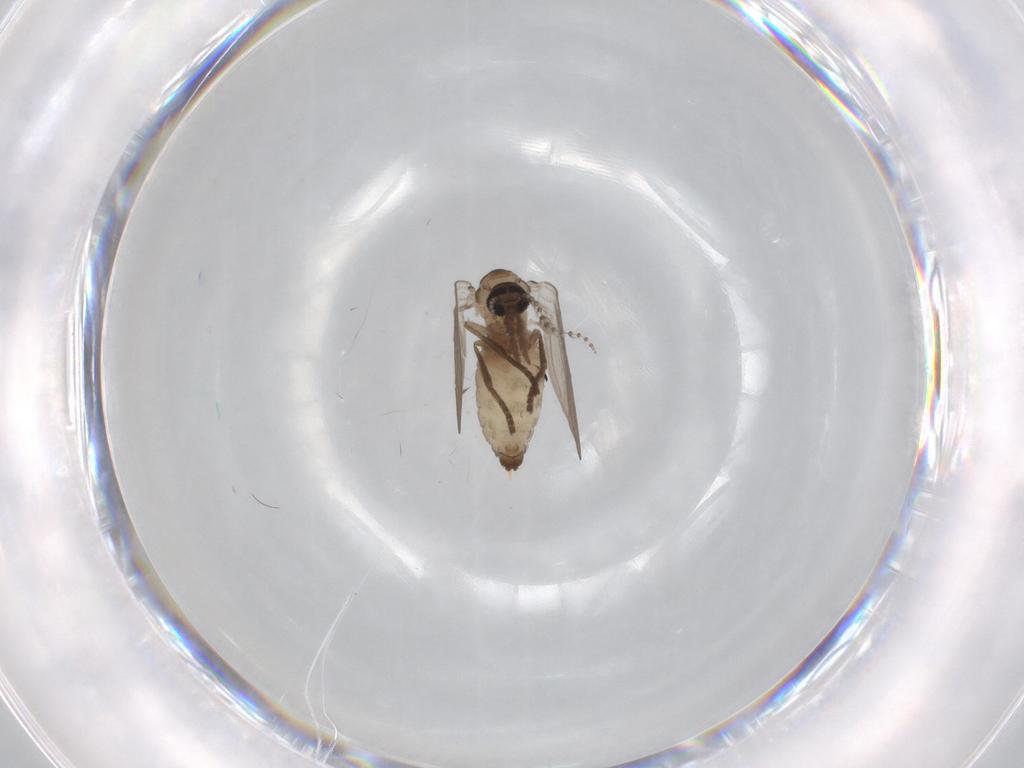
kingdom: Animalia
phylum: Arthropoda
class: Insecta
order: Diptera
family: Psychodidae
